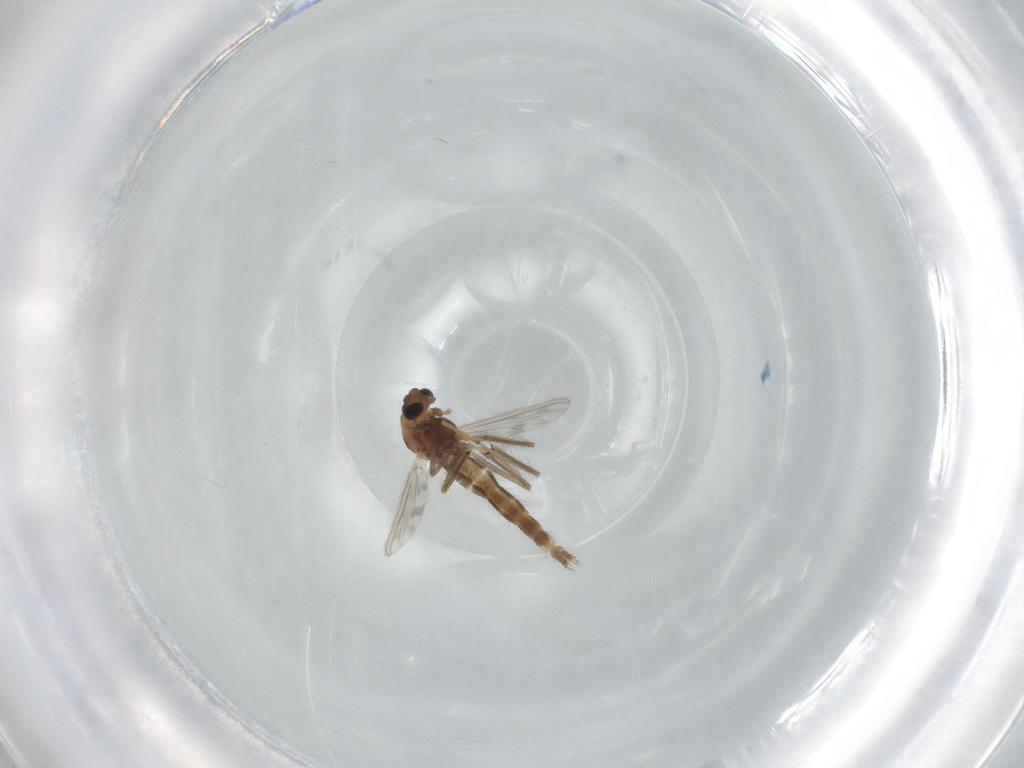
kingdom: Animalia
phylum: Arthropoda
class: Insecta
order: Diptera
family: Chironomidae
